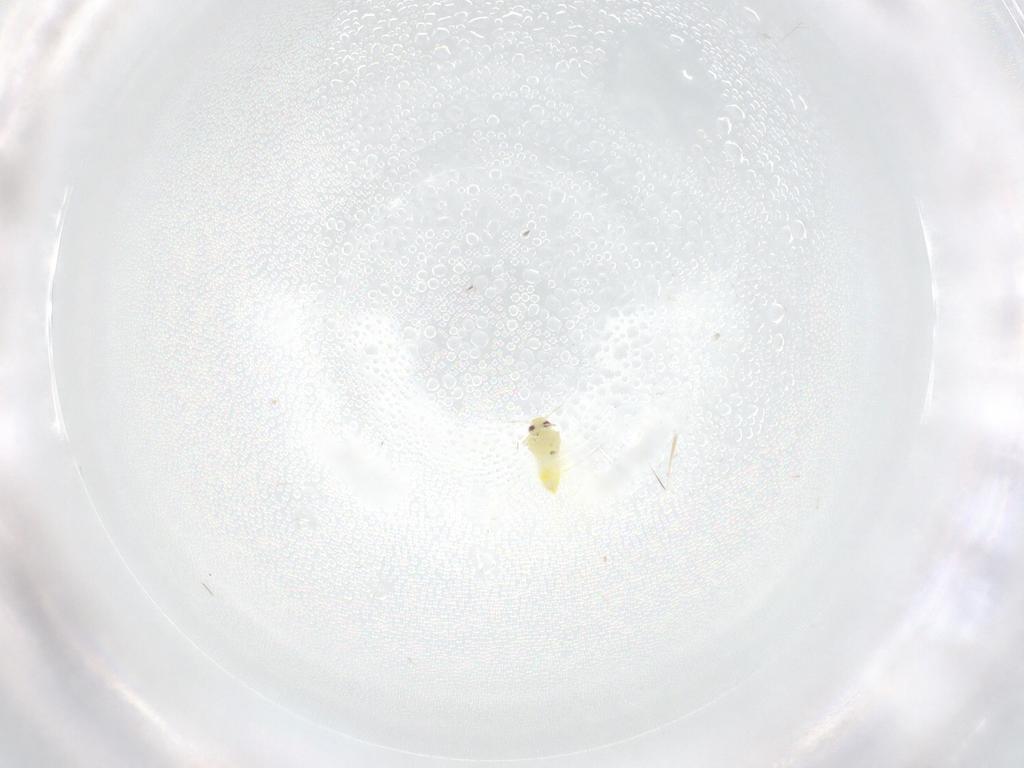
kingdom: Animalia
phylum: Arthropoda
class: Insecta
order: Hemiptera
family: Aleyrodidae
